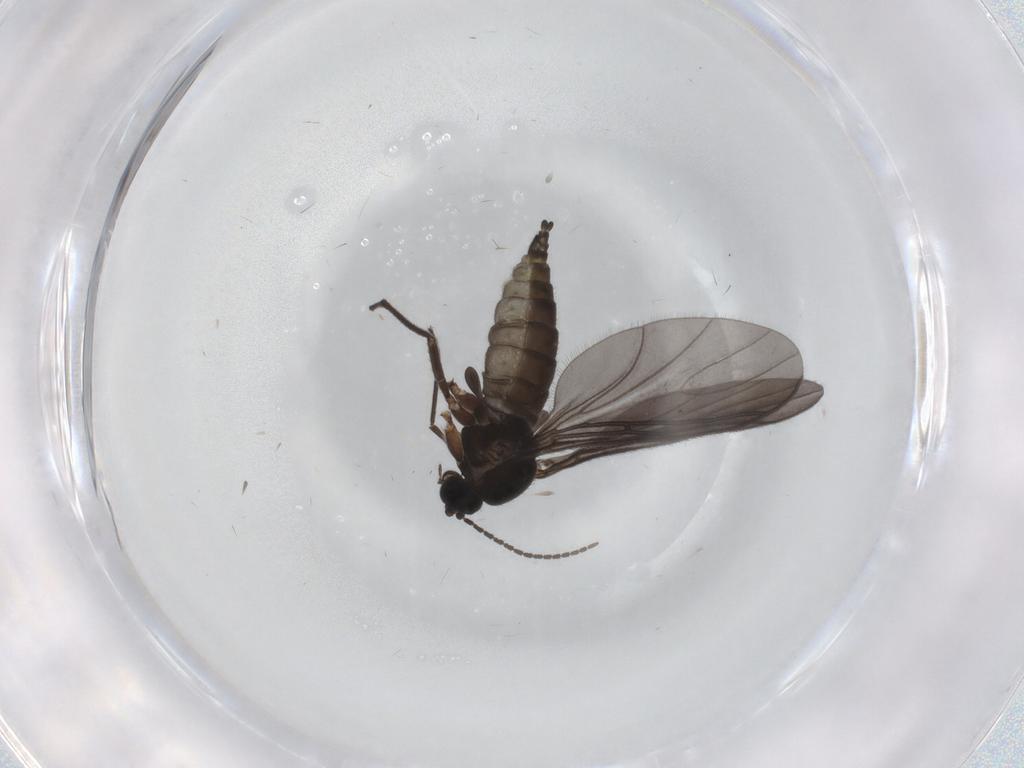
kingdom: Animalia
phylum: Arthropoda
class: Insecta
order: Diptera
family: Sciaridae
